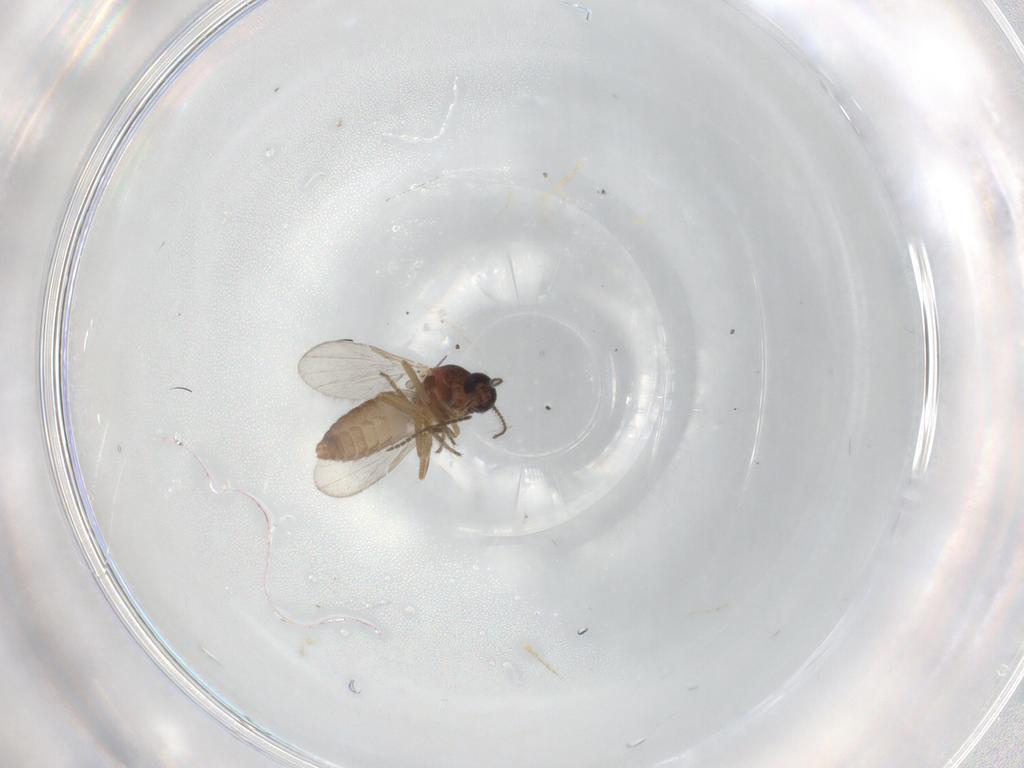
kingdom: Animalia
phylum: Arthropoda
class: Insecta
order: Diptera
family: Ceratopogonidae
